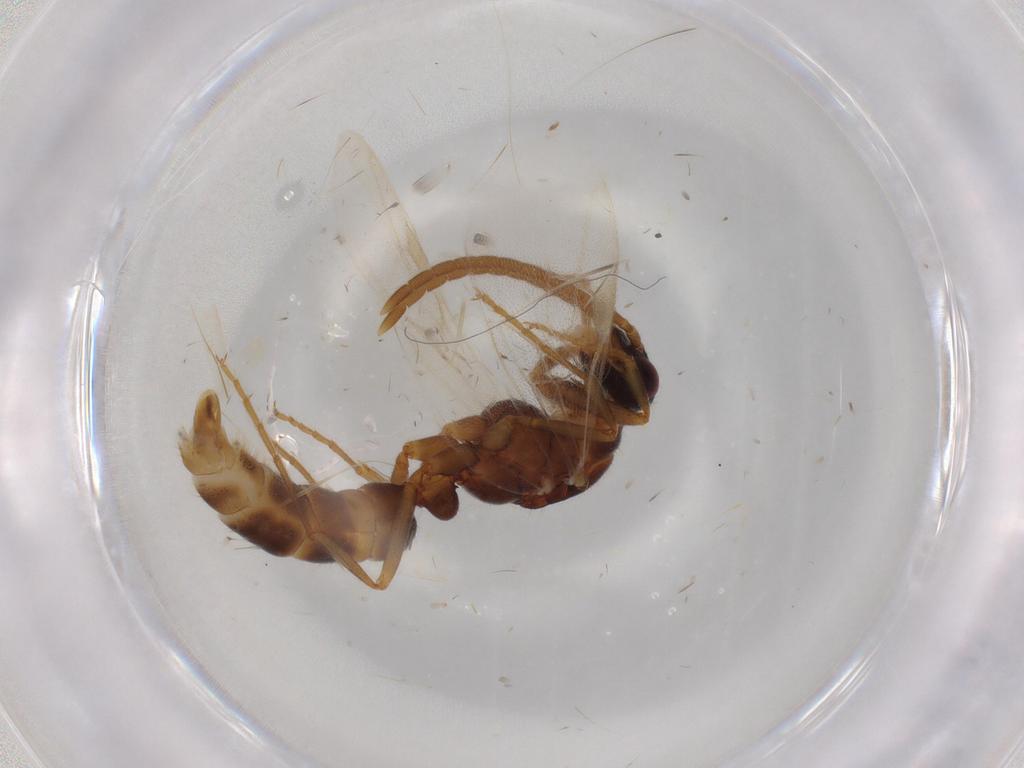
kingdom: Animalia
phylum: Arthropoda
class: Insecta
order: Hymenoptera
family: Formicidae
